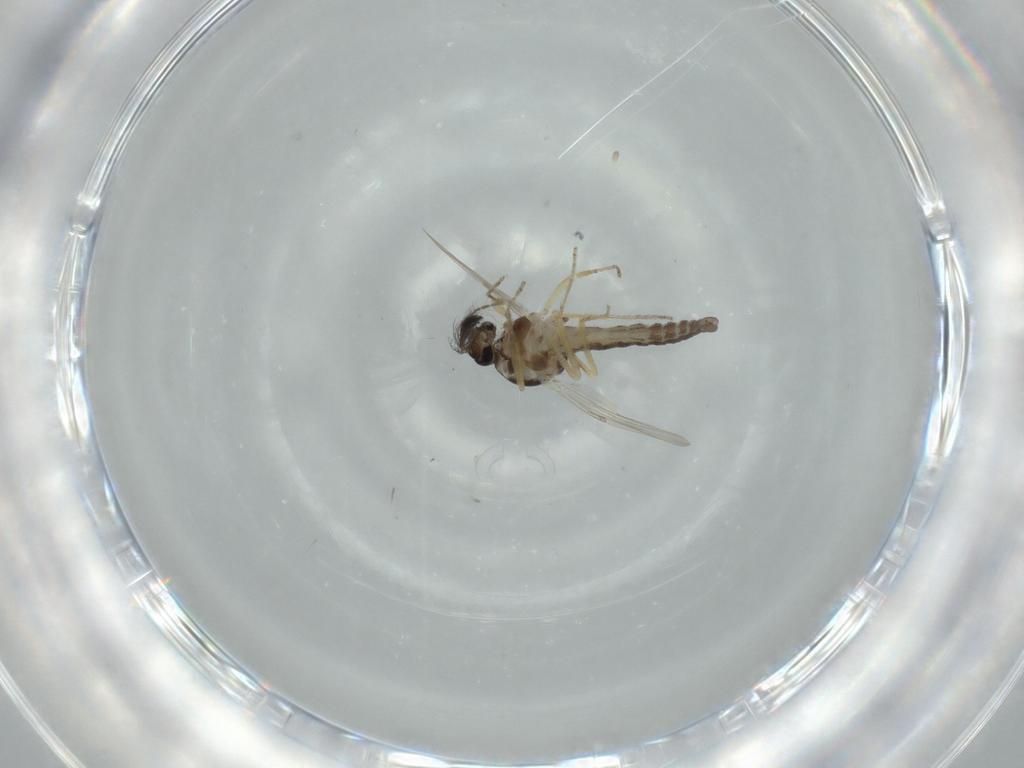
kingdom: Animalia
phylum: Arthropoda
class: Insecta
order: Diptera
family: Ceratopogonidae
